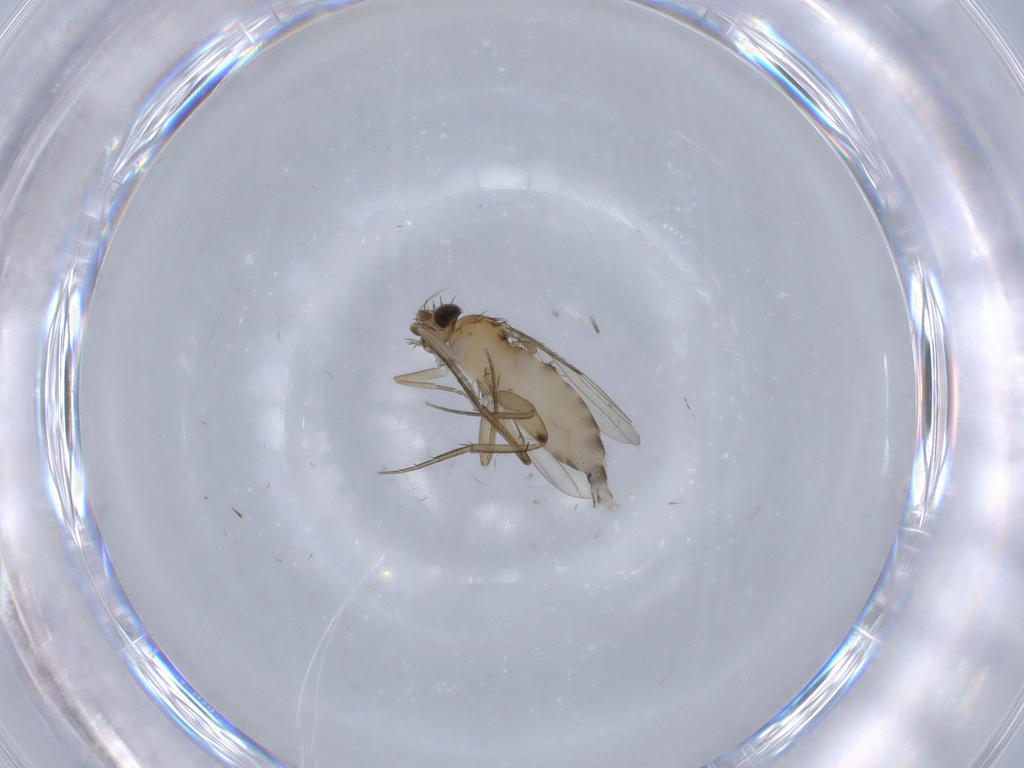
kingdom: Animalia
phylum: Arthropoda
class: Insecta
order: Diptera
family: Phoridae
